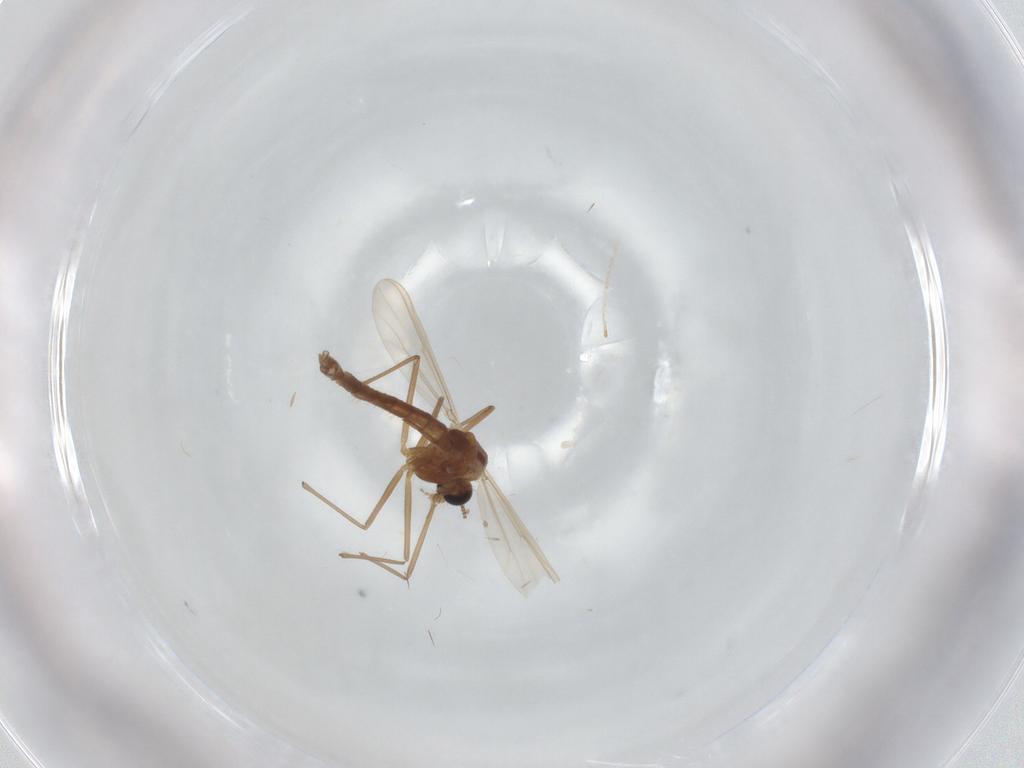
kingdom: Animalia
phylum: Arthropoda
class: Insecta
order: Diptera
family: Chironomidae
